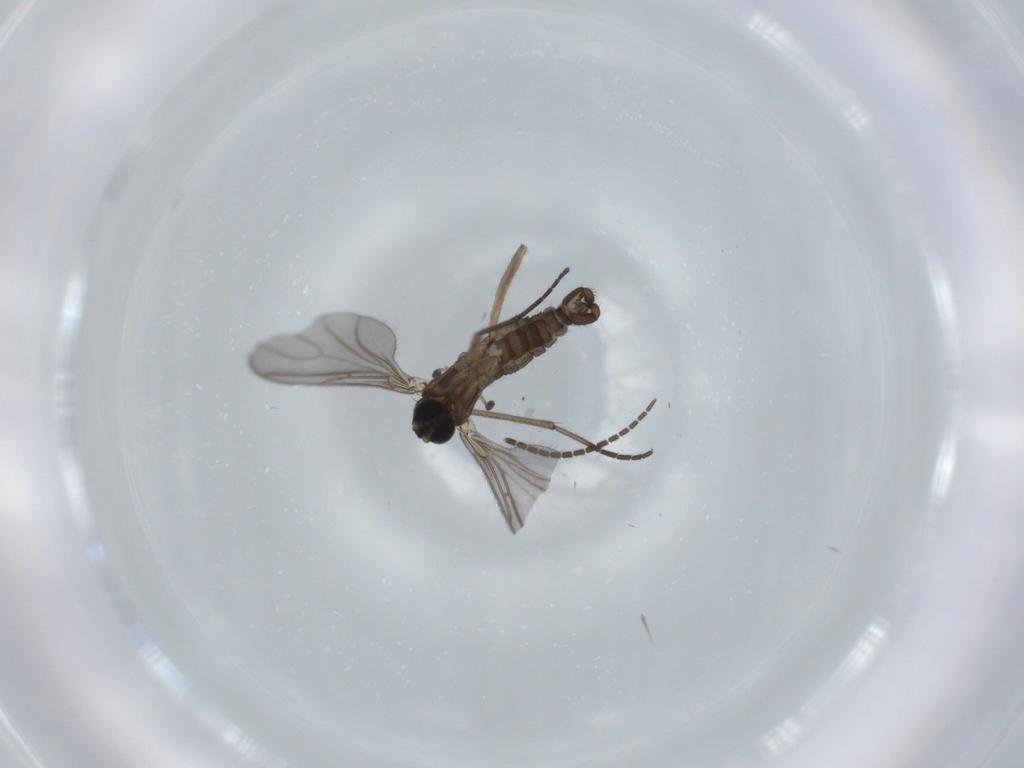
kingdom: Animalia
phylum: Arthropoda
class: Insecta
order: Diptera
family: Sciaridae
